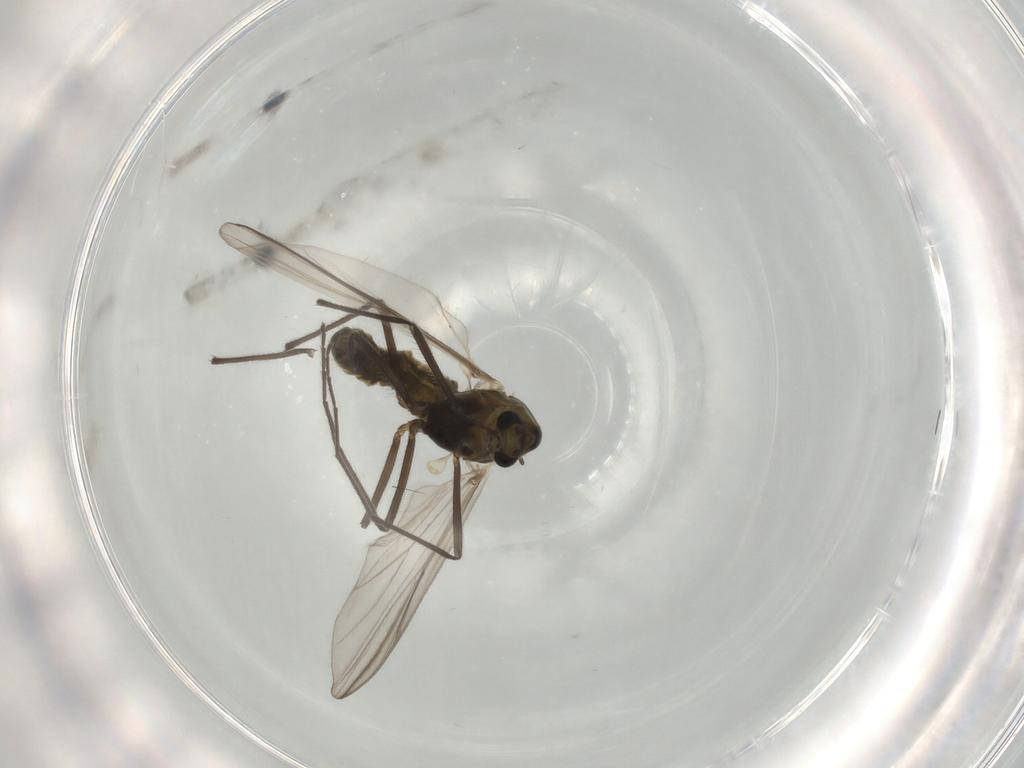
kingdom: Animalia
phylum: Arthropoda
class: Insecta
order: Diptera
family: Chironomidae
